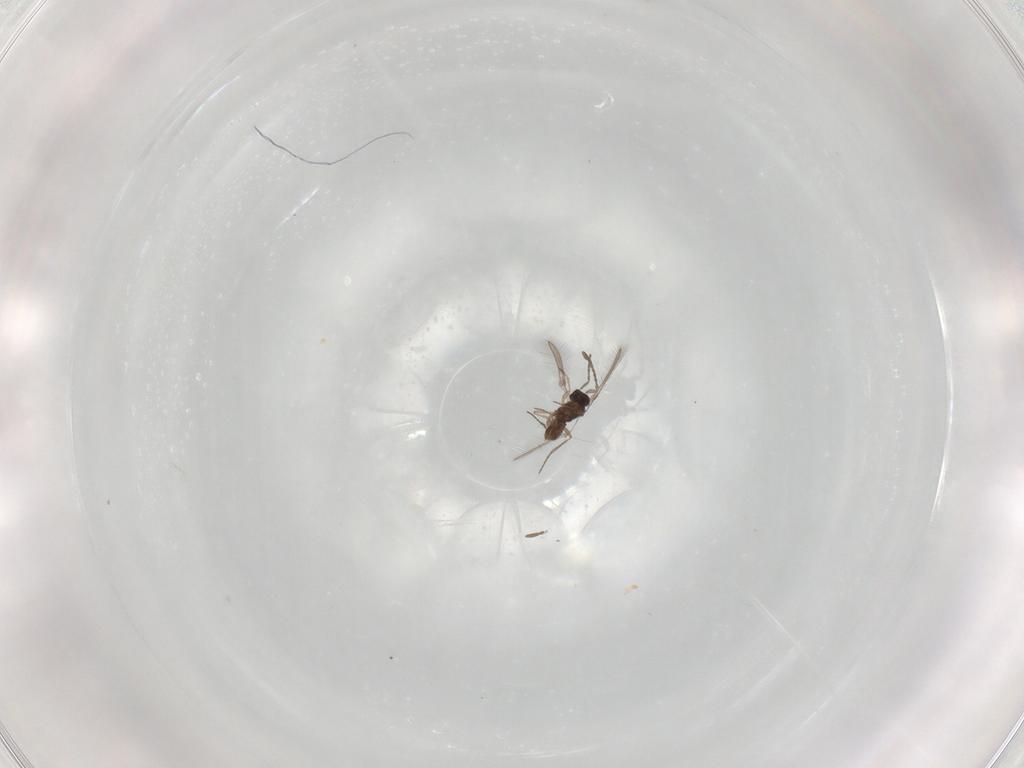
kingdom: Animalia
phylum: Arthropoda
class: Insecta
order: Hymenoptera
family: Mymaridae
